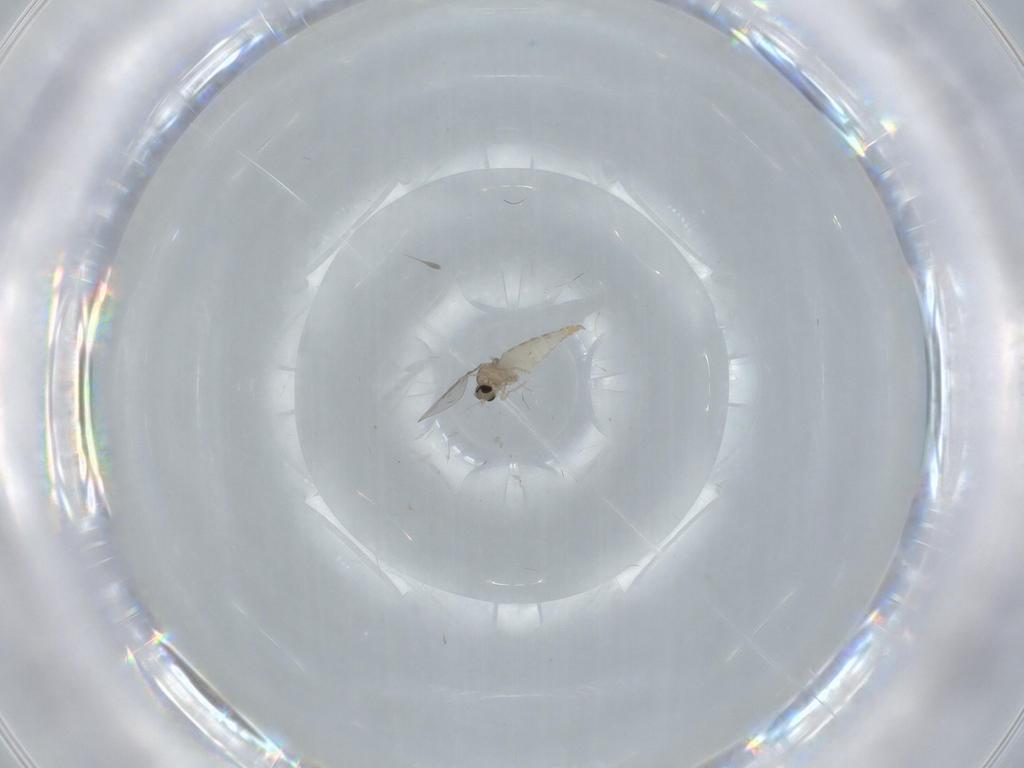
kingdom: Animalia
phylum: Arthropoda
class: Insecta
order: Diptera
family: Cecidomyiidae
